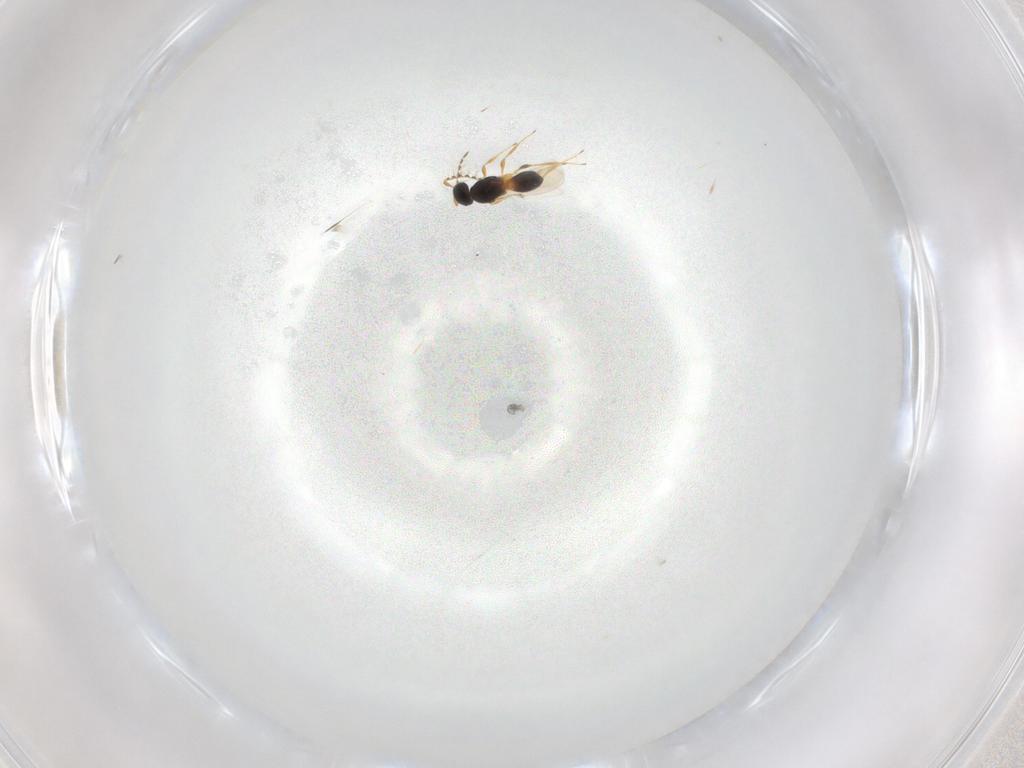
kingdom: Animalia
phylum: Arthropoda
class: Insecta
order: Hymenoptera
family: Platygastridae
